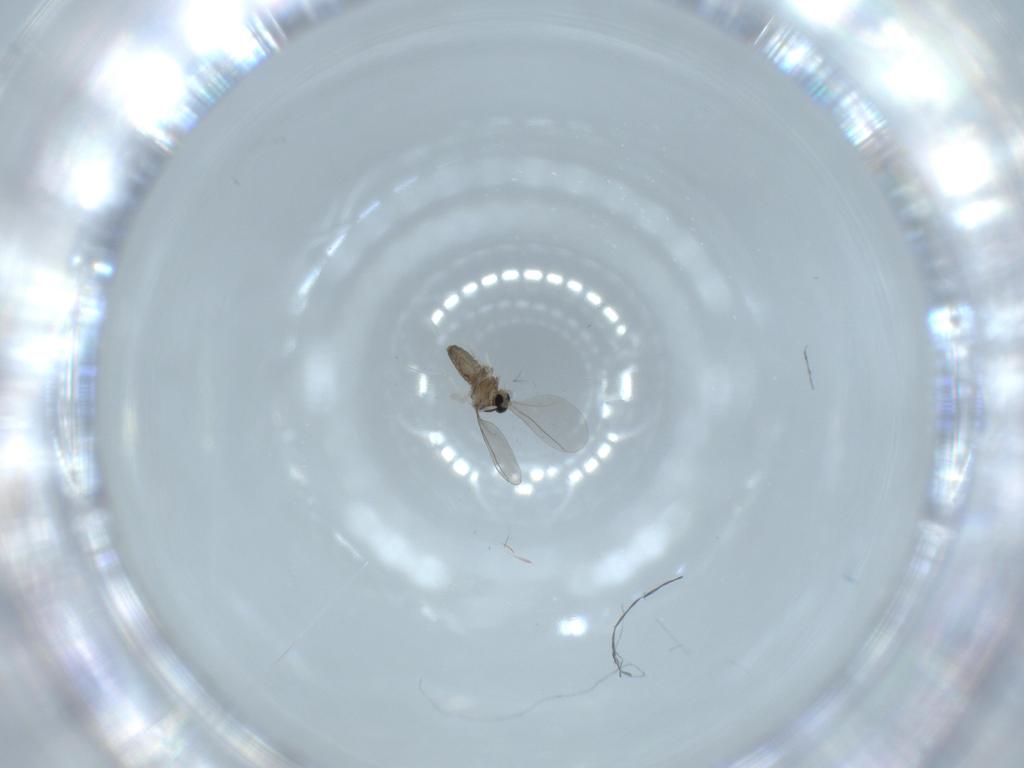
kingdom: Animalia
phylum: Arthropoda
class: Insecta
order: Diptera
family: Cecidomyiidae
